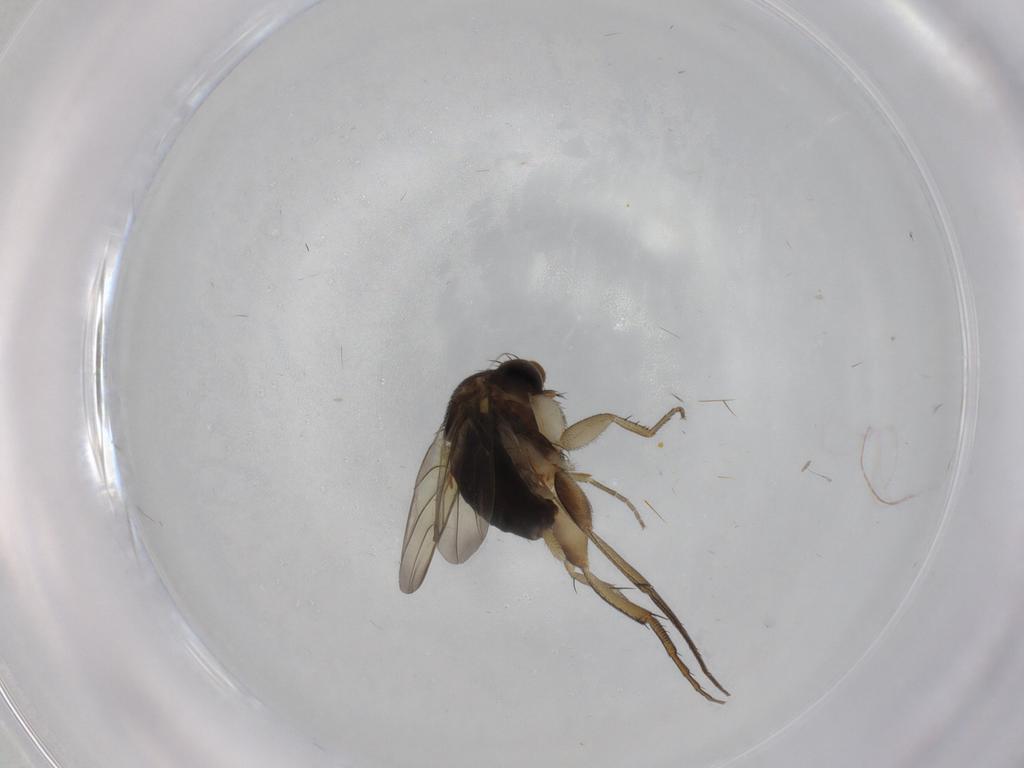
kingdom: Animalia
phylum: Arthropoda
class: Insecta
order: Diptera
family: Phoridae
